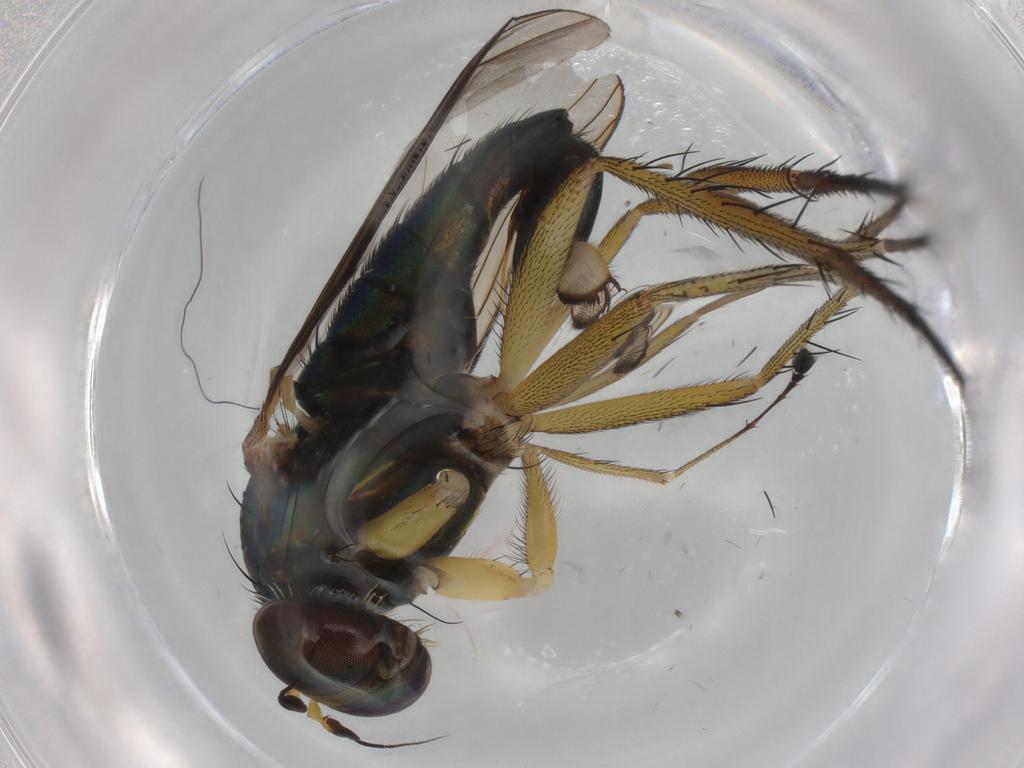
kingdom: Animalia
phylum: Arthropoda
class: Insecta
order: Diptera
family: Dolichopodidae
